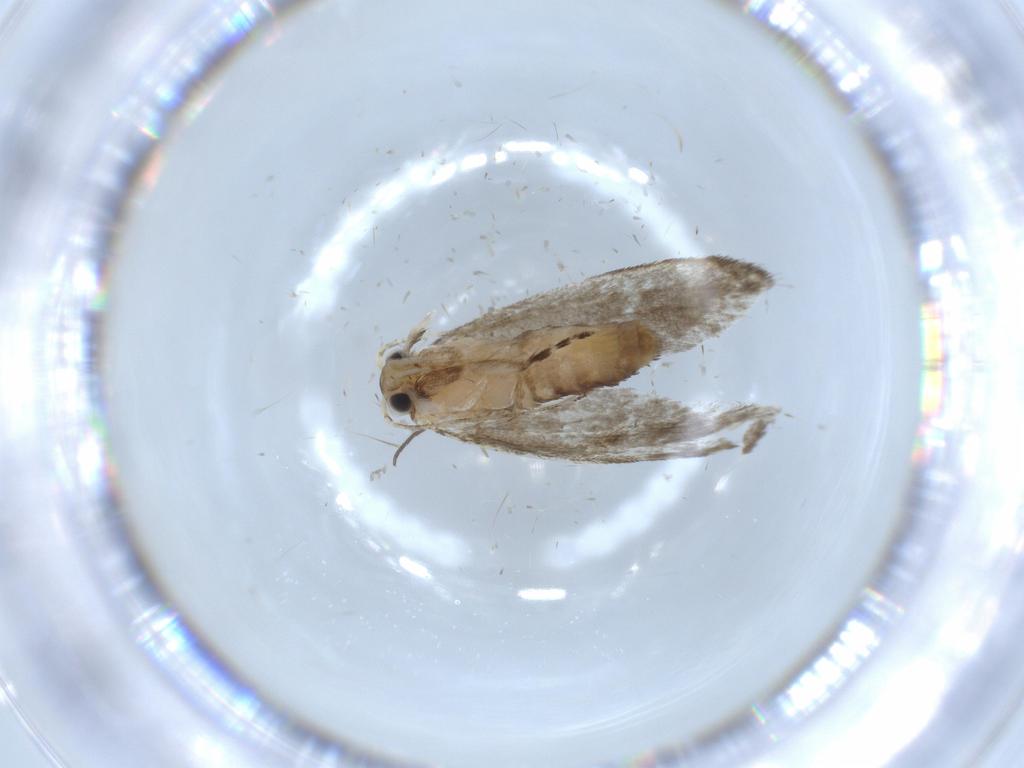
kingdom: Animalia
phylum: Arthropoda
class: Insecta
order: Lepidoptera
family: Tineidae
